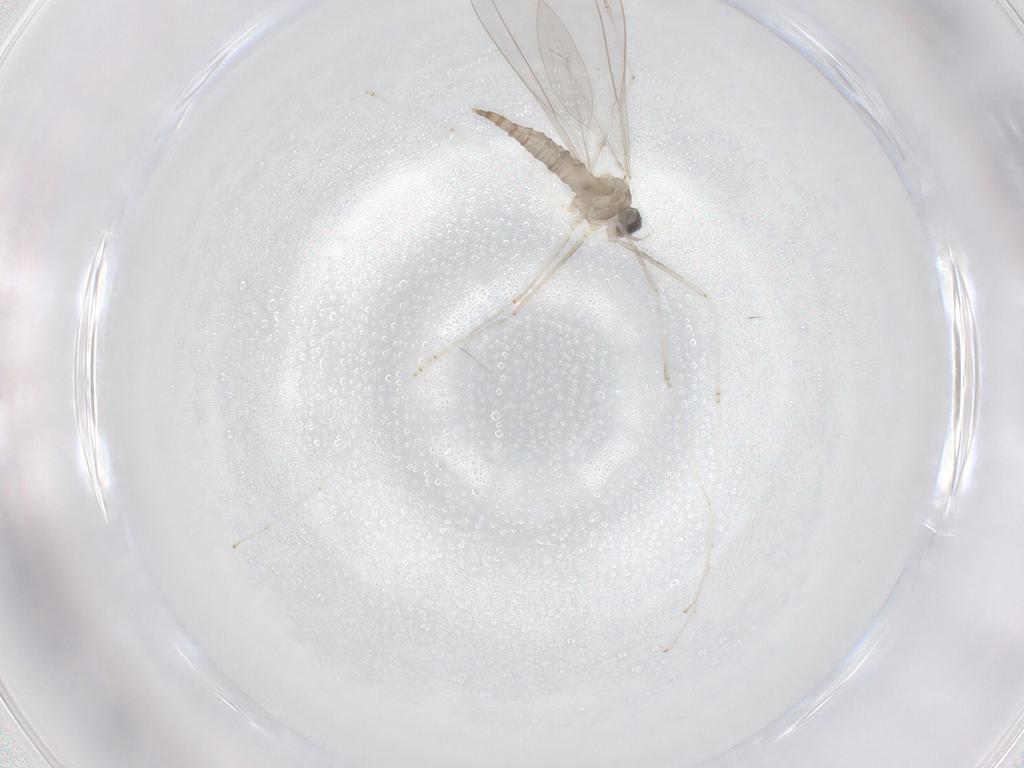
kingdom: Animalia
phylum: Arthropoda
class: Insecta
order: Diptera
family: Cecidomyiidae
